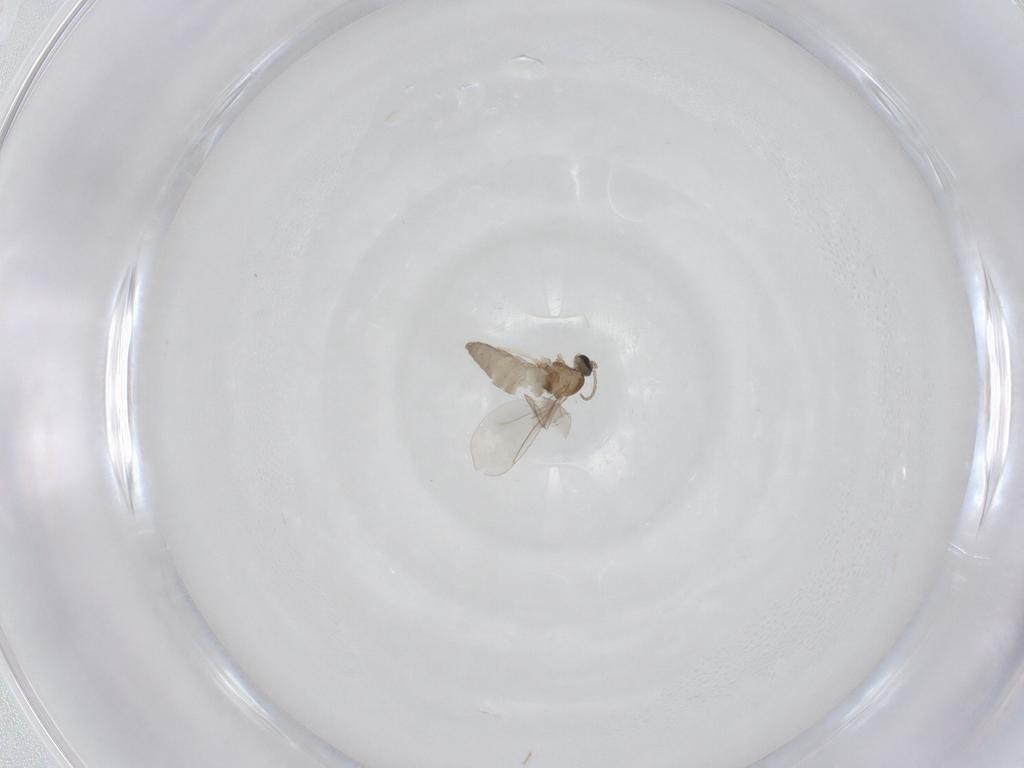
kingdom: Animalia
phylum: Arthropoda
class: Insecta
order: Diptera
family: Cecidomyiidae
